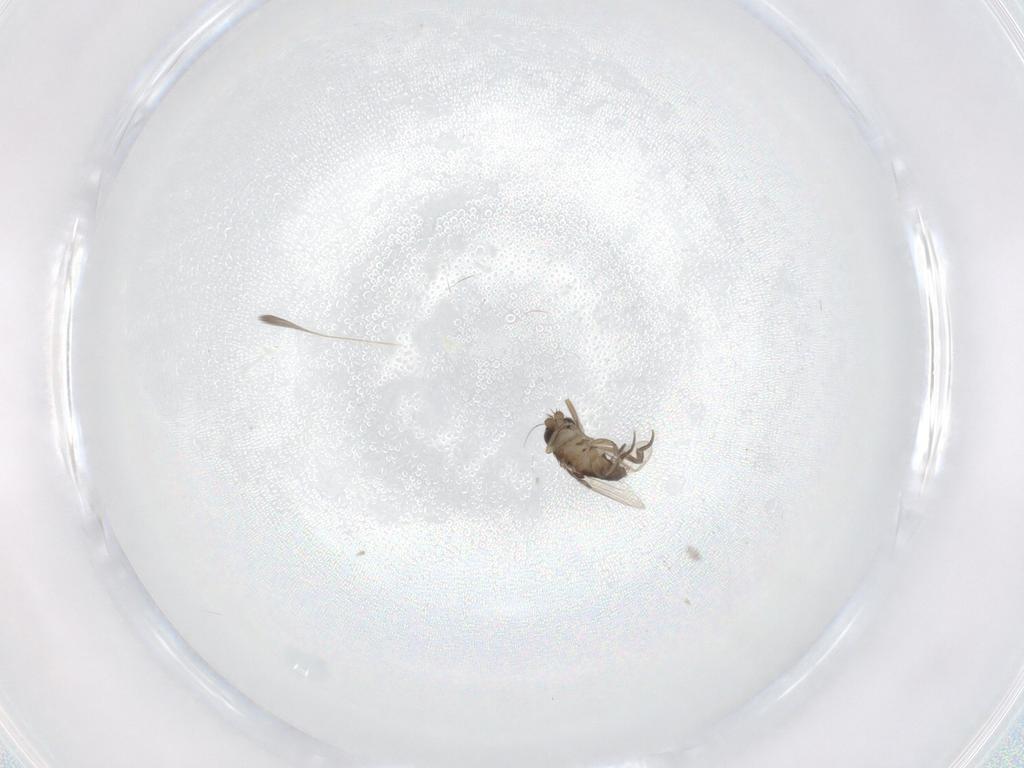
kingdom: Animalia
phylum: Arthropoda
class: Insecta
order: Diptera
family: Phoridae
